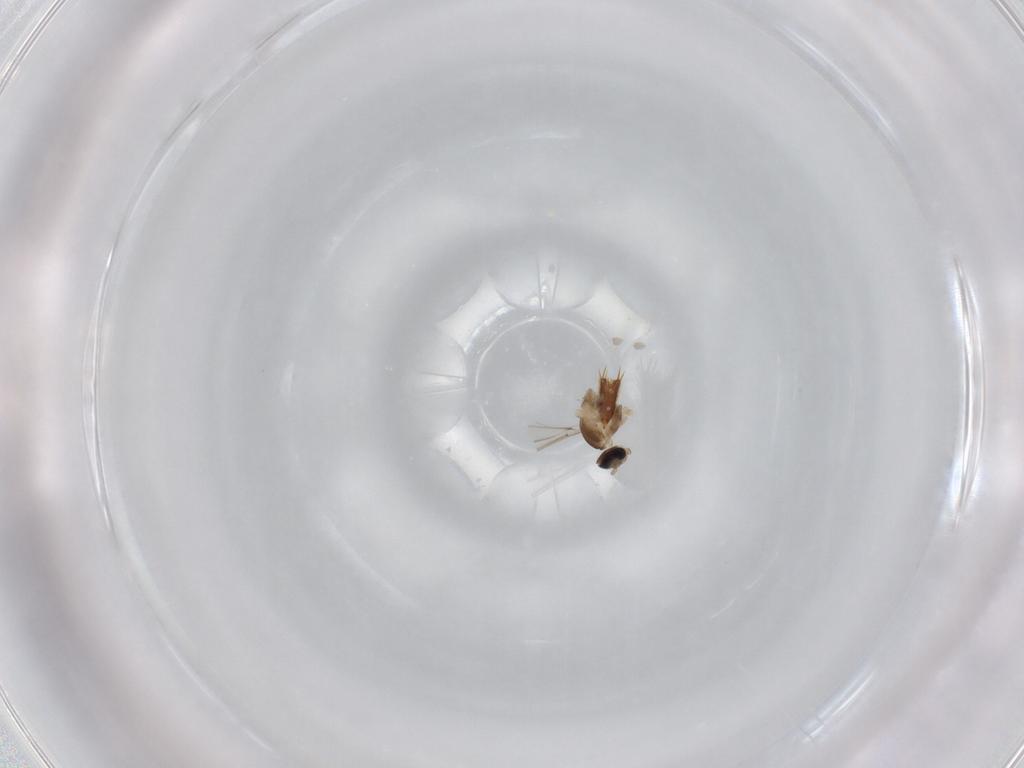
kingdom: Animalia
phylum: Arthropoda
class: Insecta
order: Diptera
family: Cecidomyiidae
